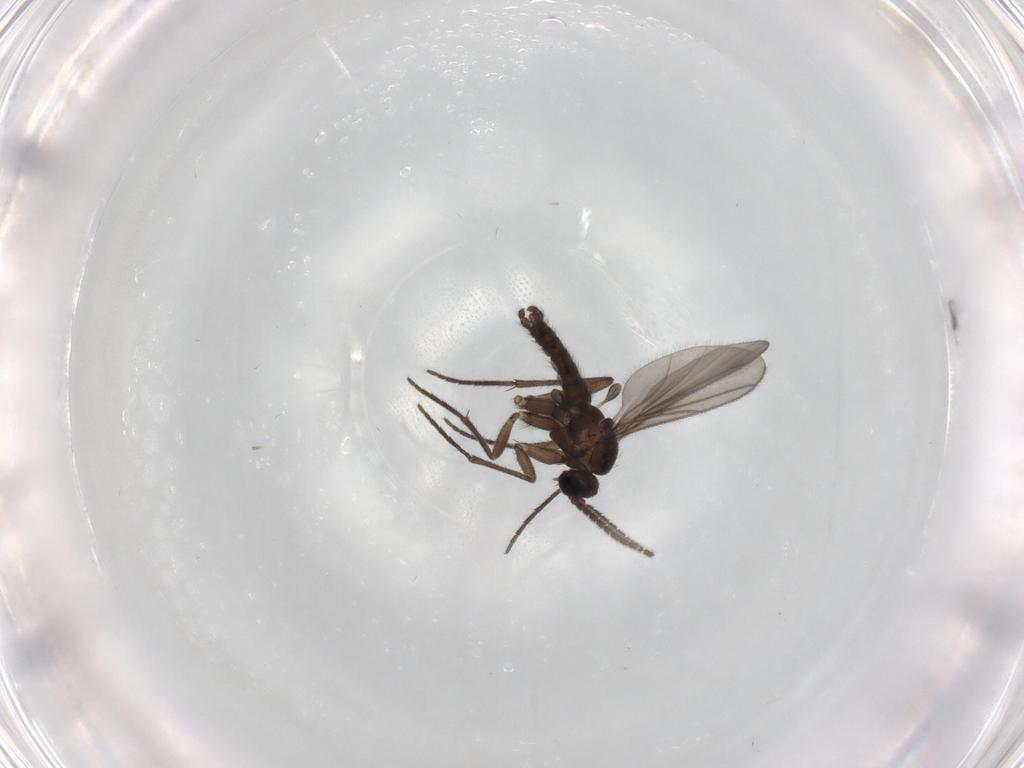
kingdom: Animalia
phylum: Arthropoda
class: Insecta
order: Diptera
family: Sciaridae
